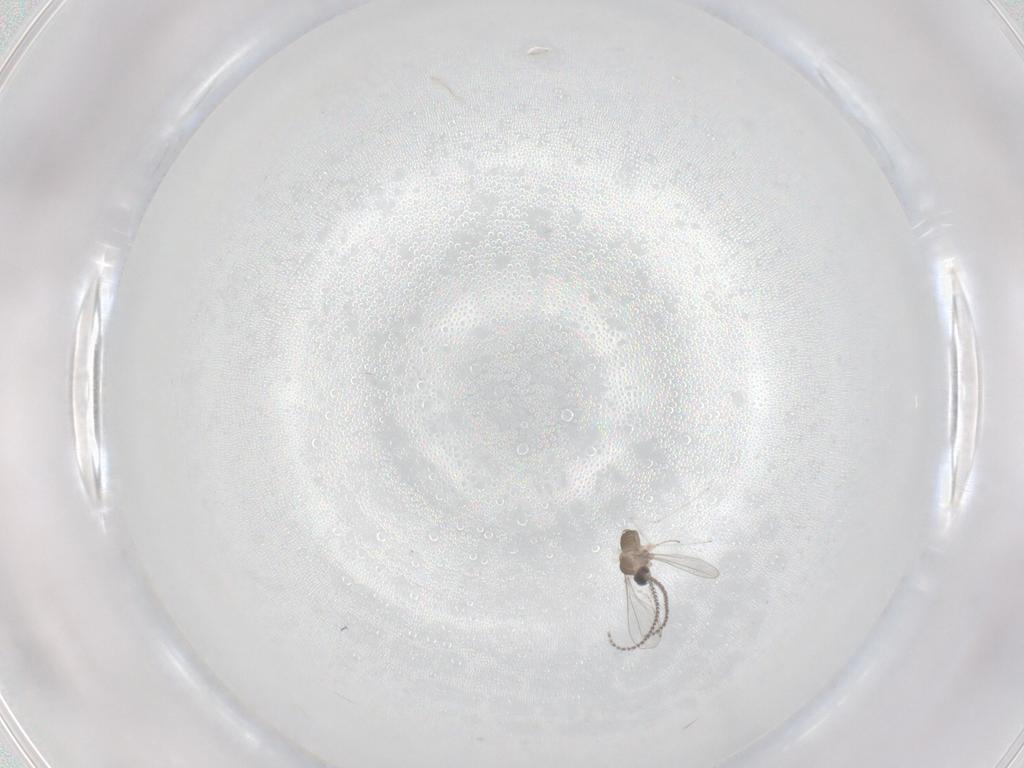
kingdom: Animalia
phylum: Arthropoda
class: Insecta
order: Diptera
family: Cecidomyiidae
